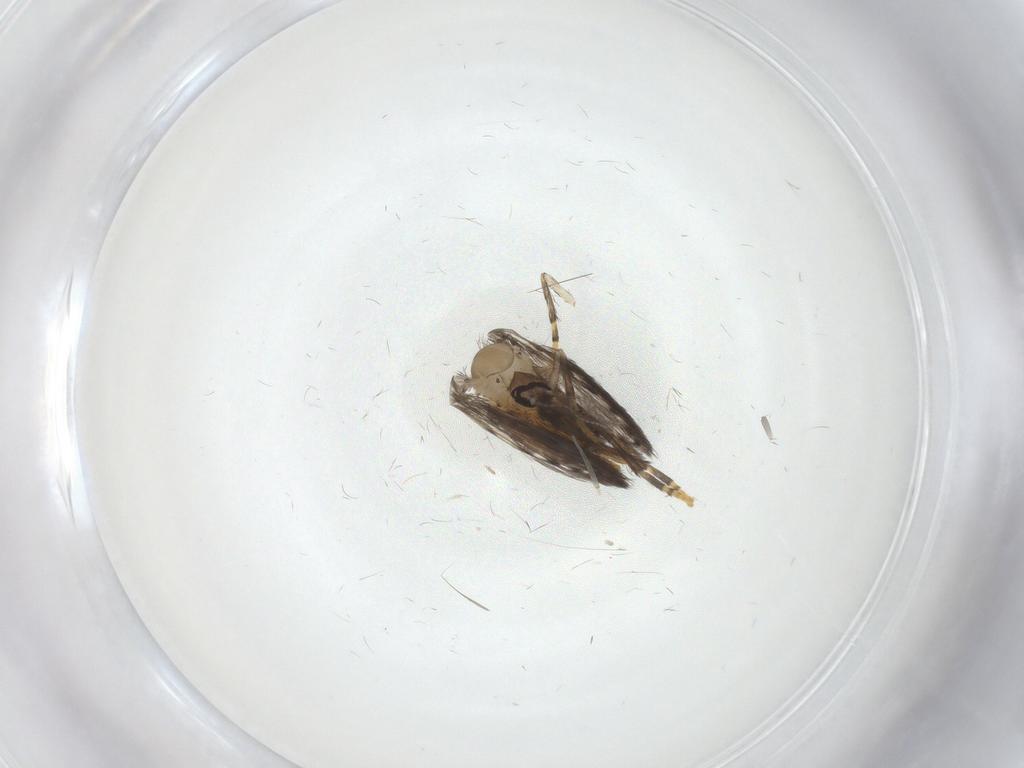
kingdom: Animalia
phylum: Arthropoda
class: Insecta
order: Diptera
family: Psychodidae
